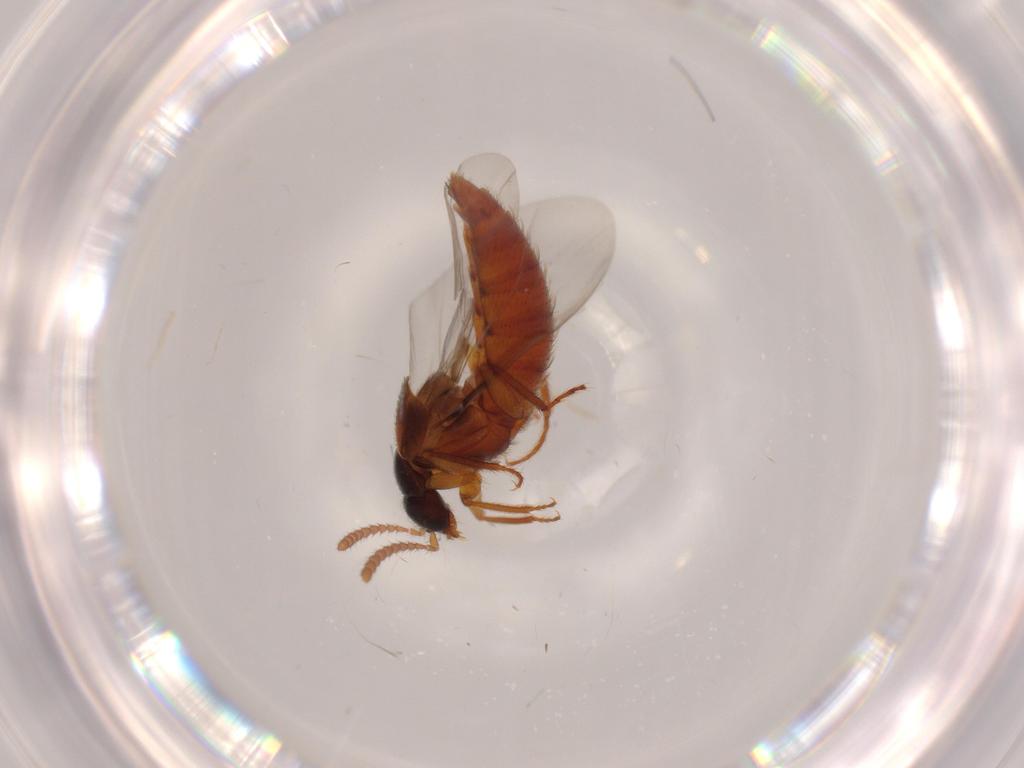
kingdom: Animalia
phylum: Arthropoda
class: Insecta
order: Coleoptera
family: Staphylinidae
